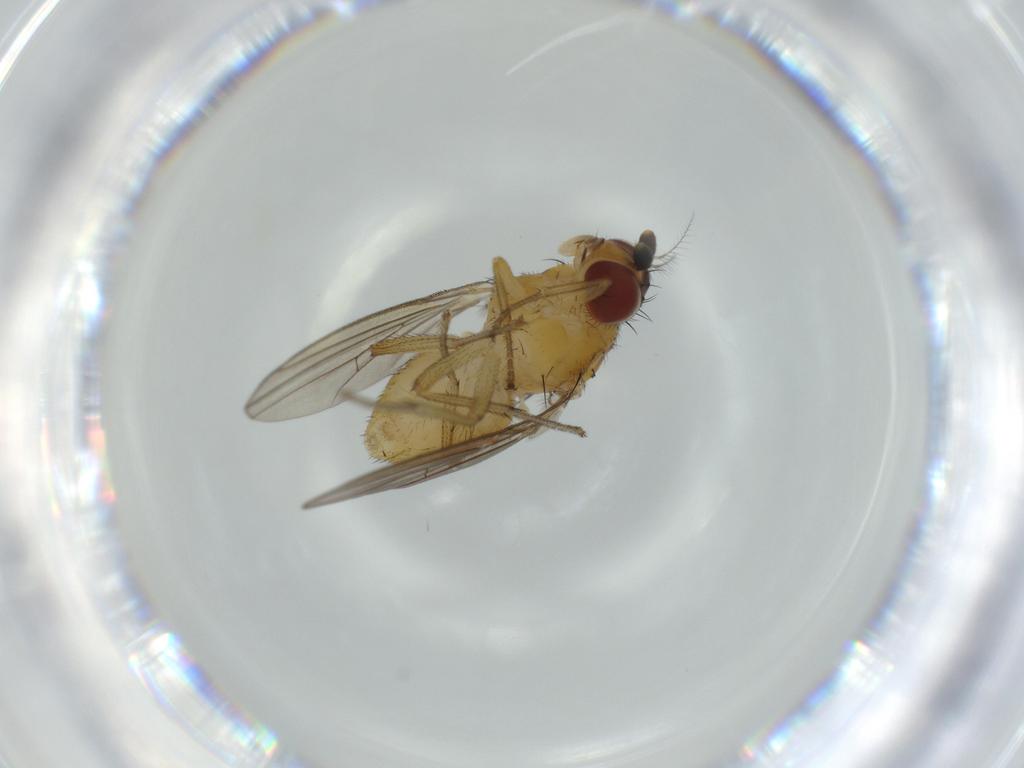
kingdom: Animalia
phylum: Arthropoda
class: Insecta
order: Diptera
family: Lauxaniidae
